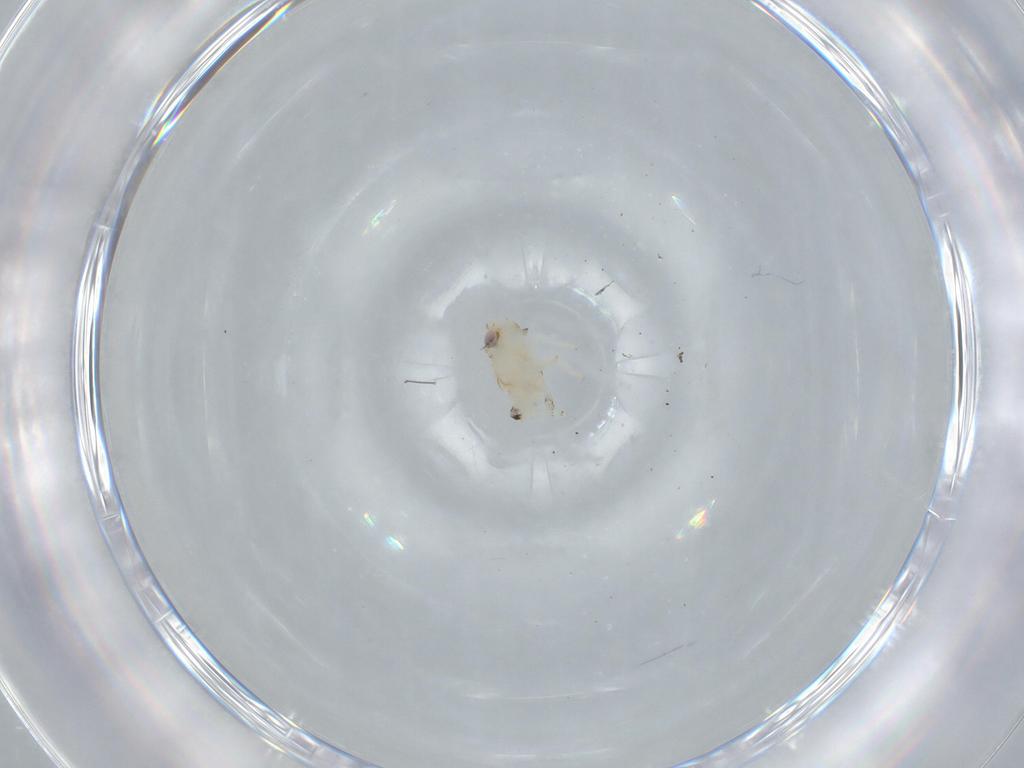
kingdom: Animalia
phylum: Arthropoda
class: Insecta
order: Hemiptera
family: Nogodinidae
